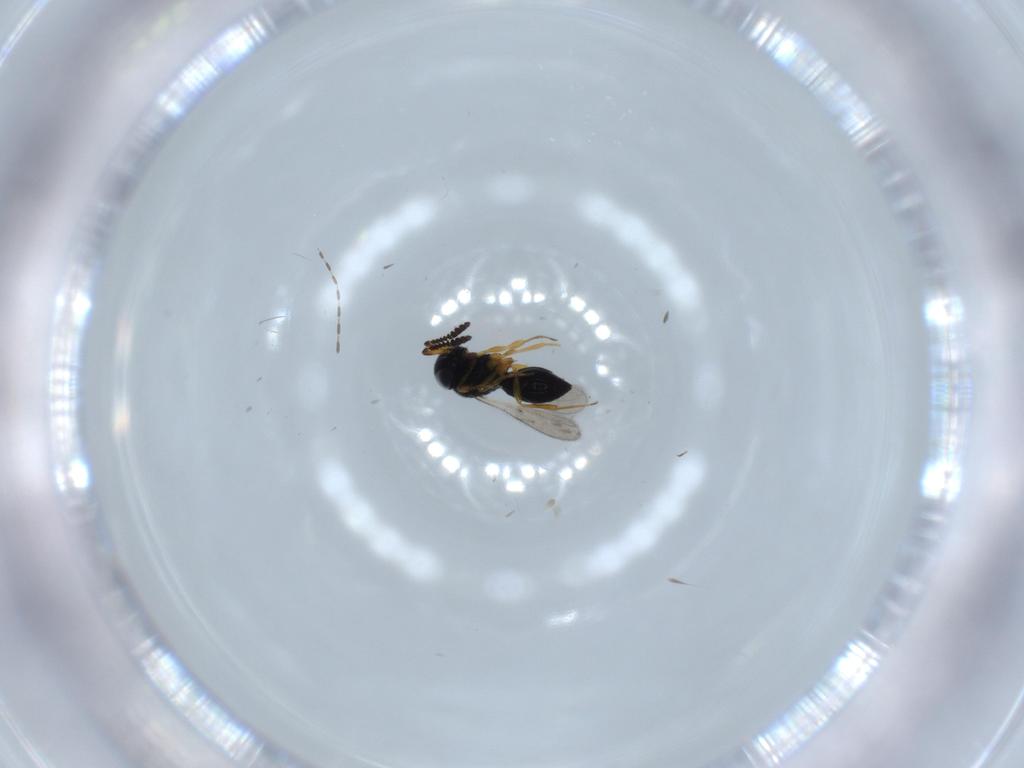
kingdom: Animalia
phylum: Arthropoda
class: Insecta
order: Hymenoptera
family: Scelionidae
